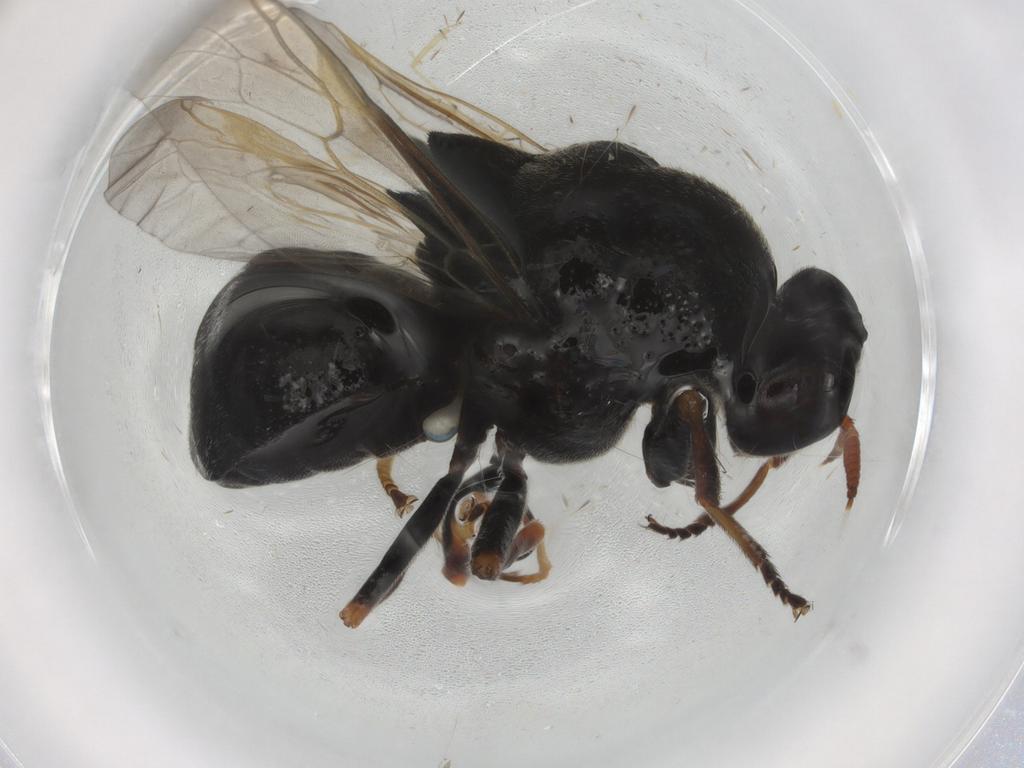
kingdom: Animalia
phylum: Arthropoda
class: Insecta
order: Diptera
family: Stratiomyidae
